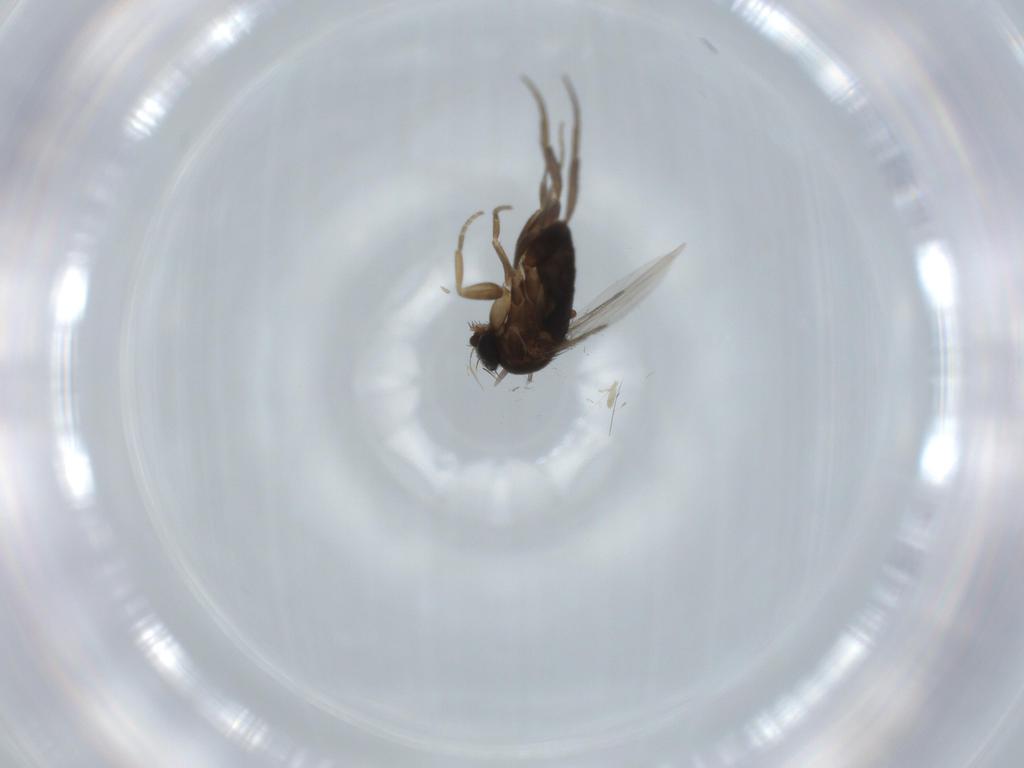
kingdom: Animalia
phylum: Arthropoda
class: Insecta
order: Diptera
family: Phoridae
